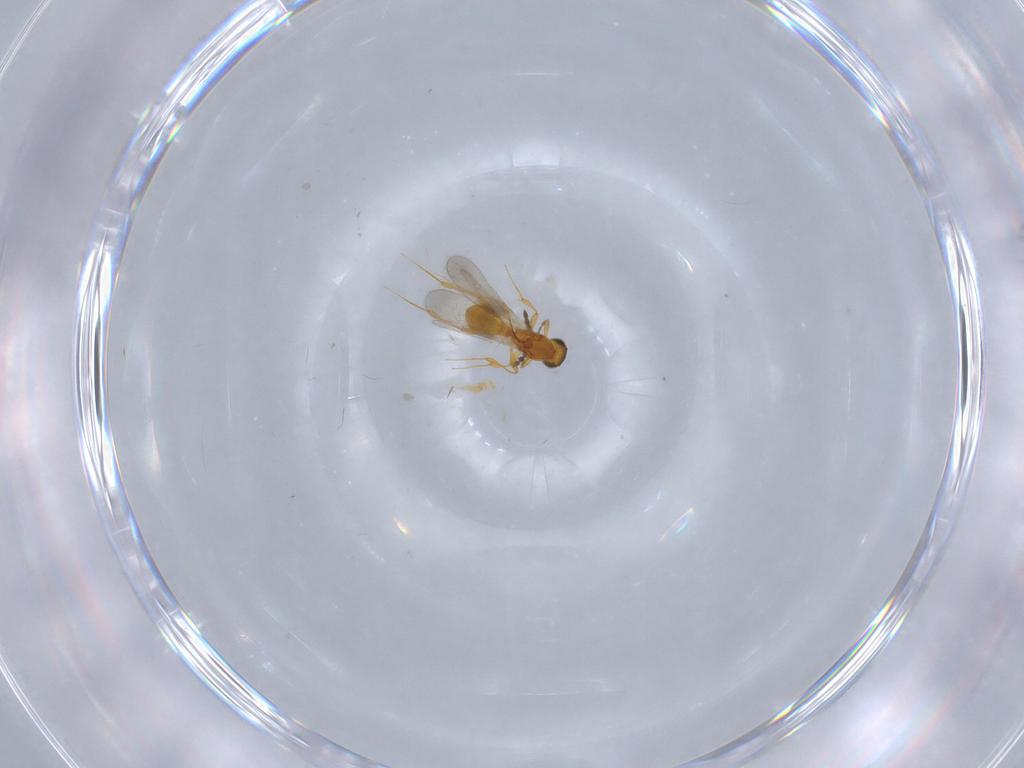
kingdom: Animalia
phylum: Arthropoda
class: Insecta
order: Hymenoptera
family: Platygastridae
